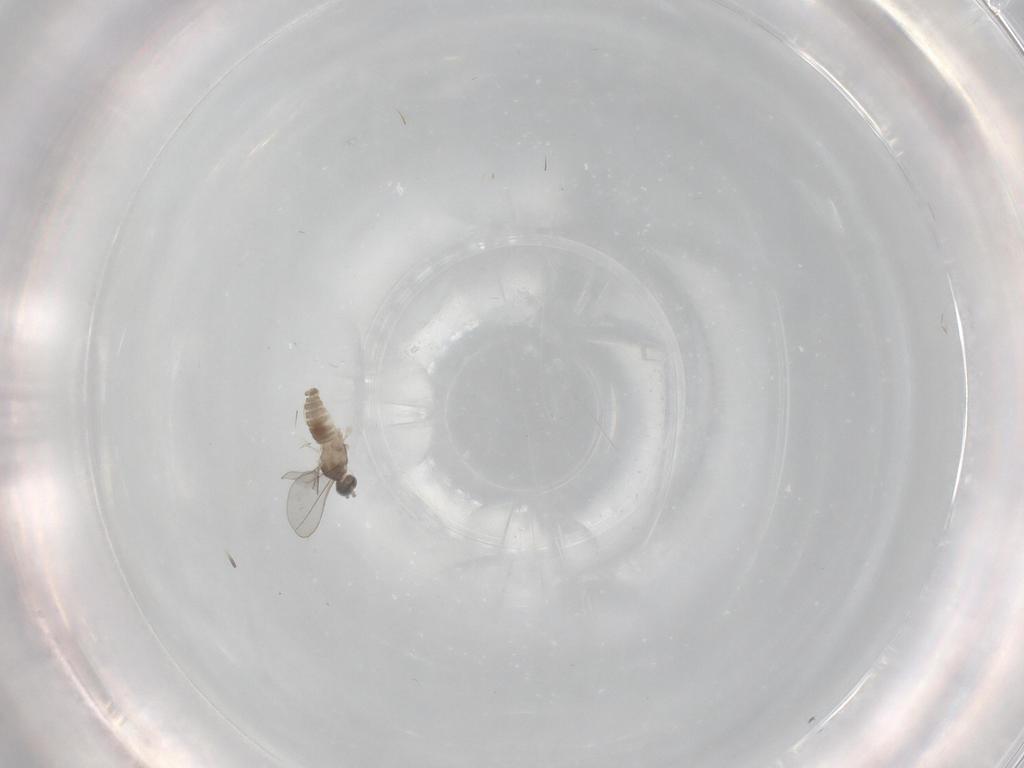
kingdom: Animalia
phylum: Arthropoda
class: Insecta
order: Diptera
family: Cecidomyiidae
